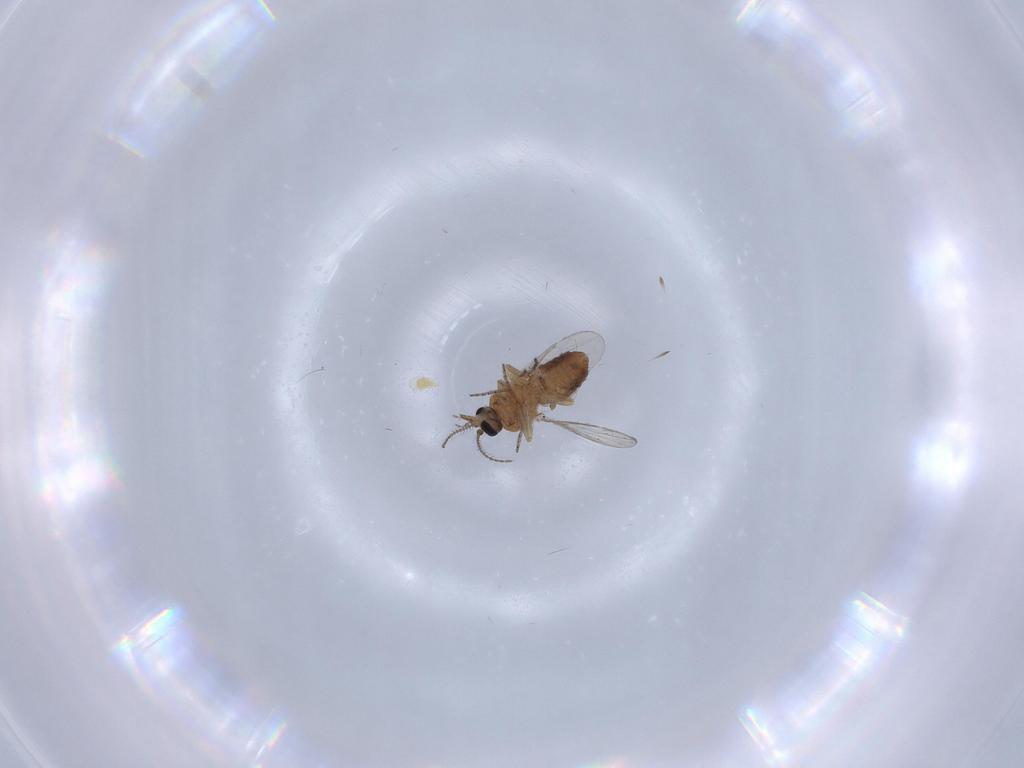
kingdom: Animalia
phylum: Arthropoda
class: Insecta
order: Diptera
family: Ceratopogonidae
